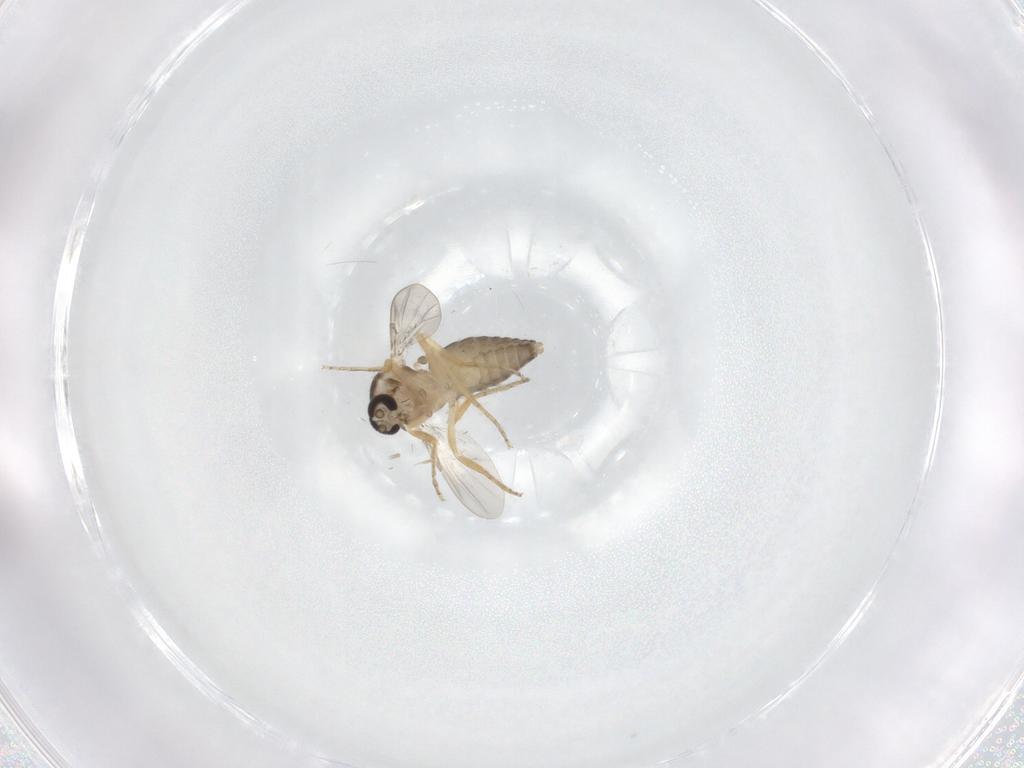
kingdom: Animalia
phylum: Arthropoda
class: Insecta
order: Diptera
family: Ceratopogonidae
